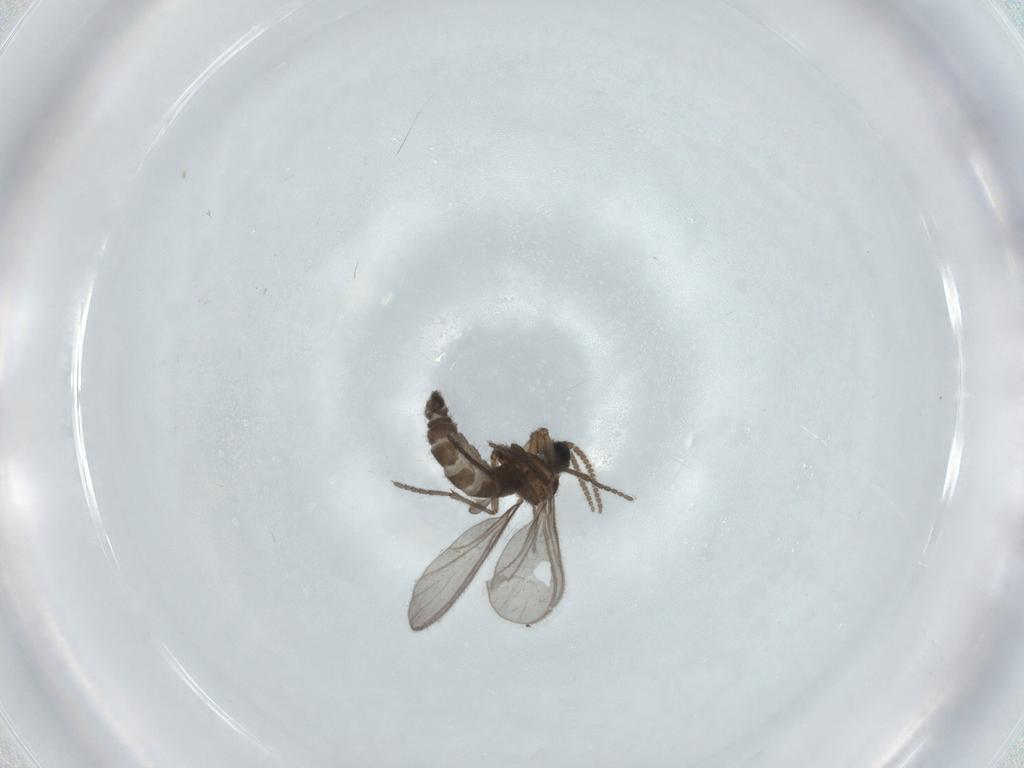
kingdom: Animalia
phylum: Arthropoda
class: Insecta
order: Diptera
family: Sciaridae
